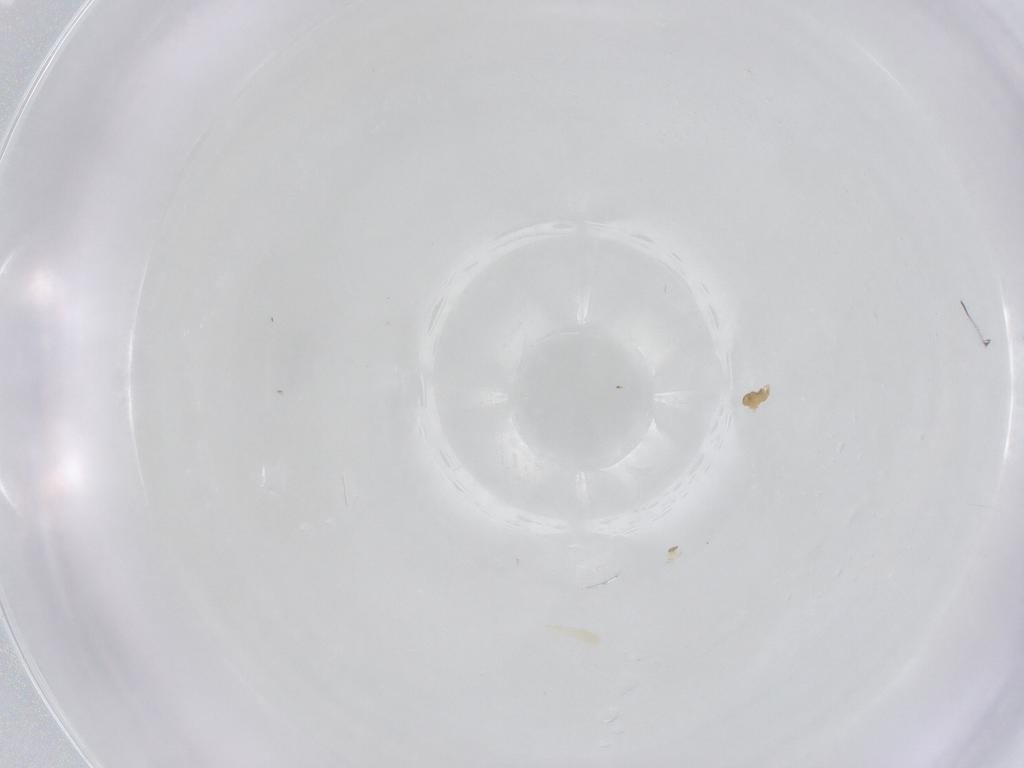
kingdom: Animalia
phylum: Arthropoda
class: Insecta
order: Diptera
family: Cecidomyiidae
